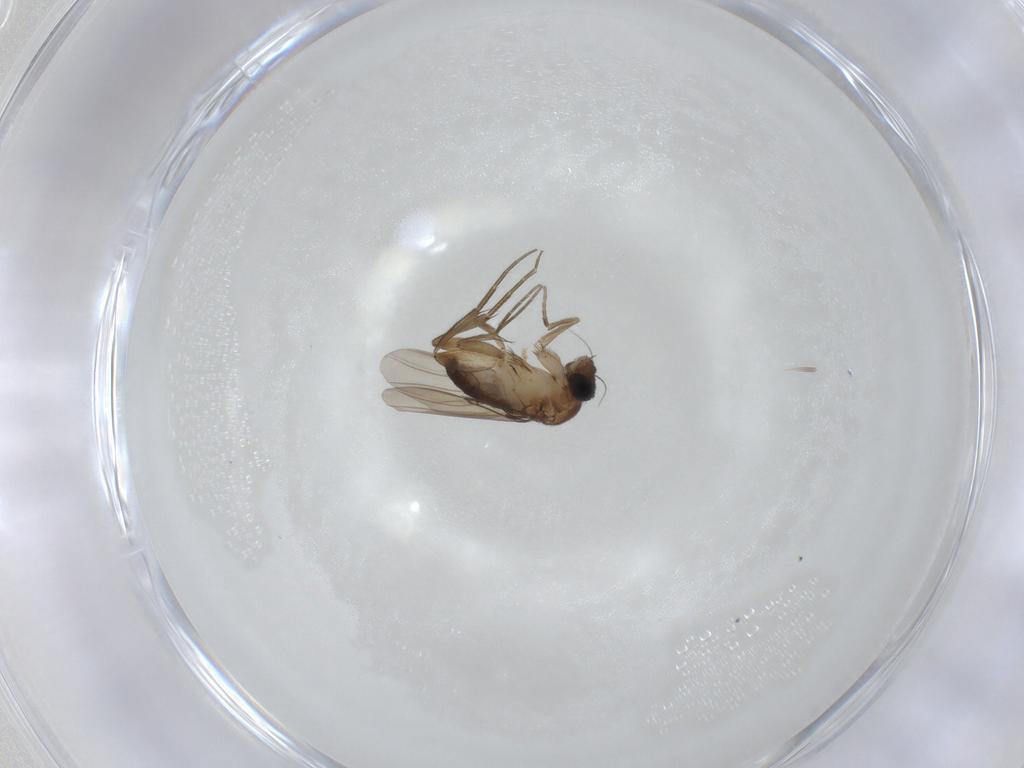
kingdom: Animalia
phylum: Arthropoda
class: Insecta
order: Diptera
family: Phoridae
